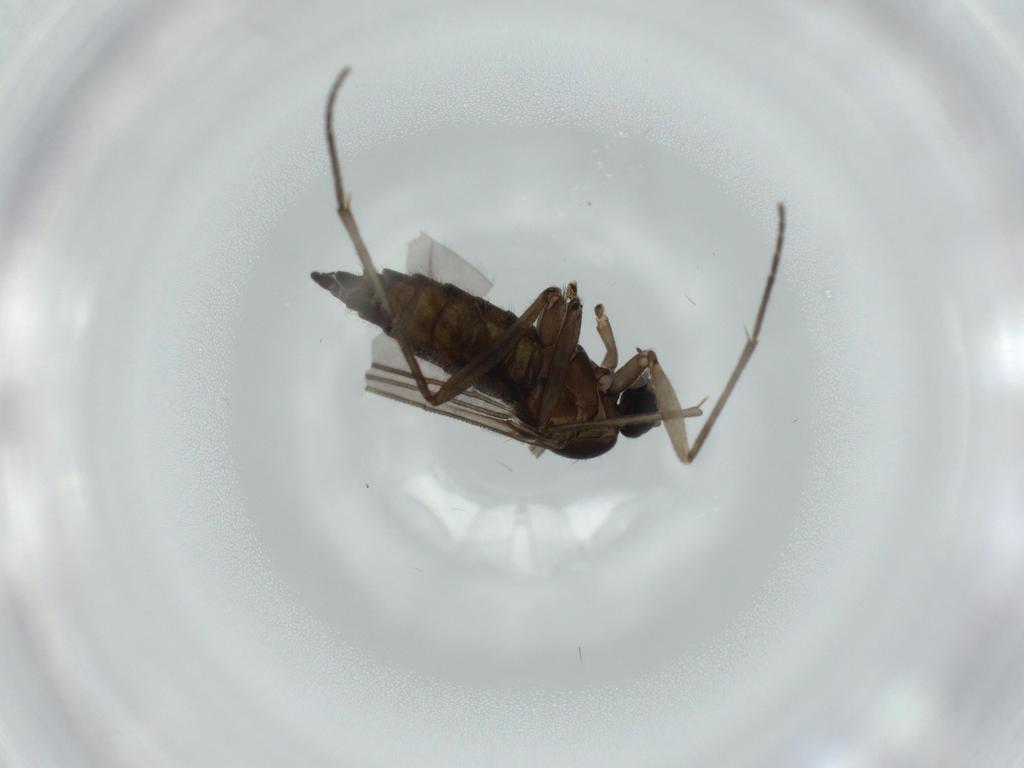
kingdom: Animalia
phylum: Arthropoda
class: Insecta
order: Diptera
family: Sciaridae
